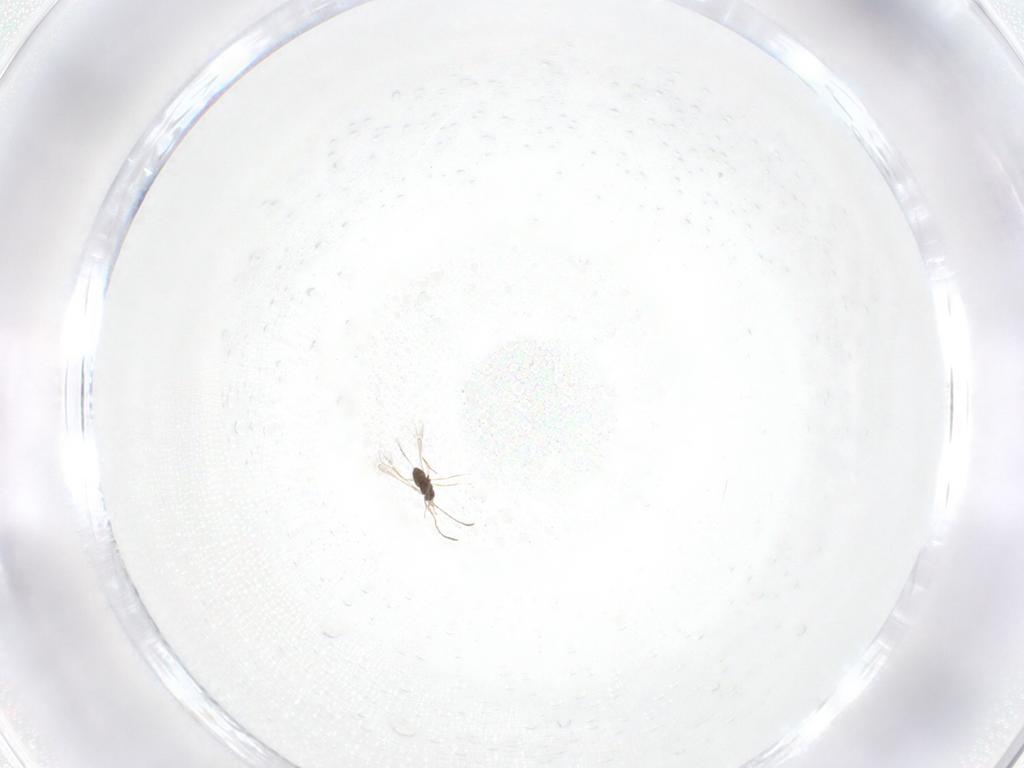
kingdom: Animalia
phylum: Arthropoda
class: Insecta
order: Hymenoptera
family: Mymaridae
